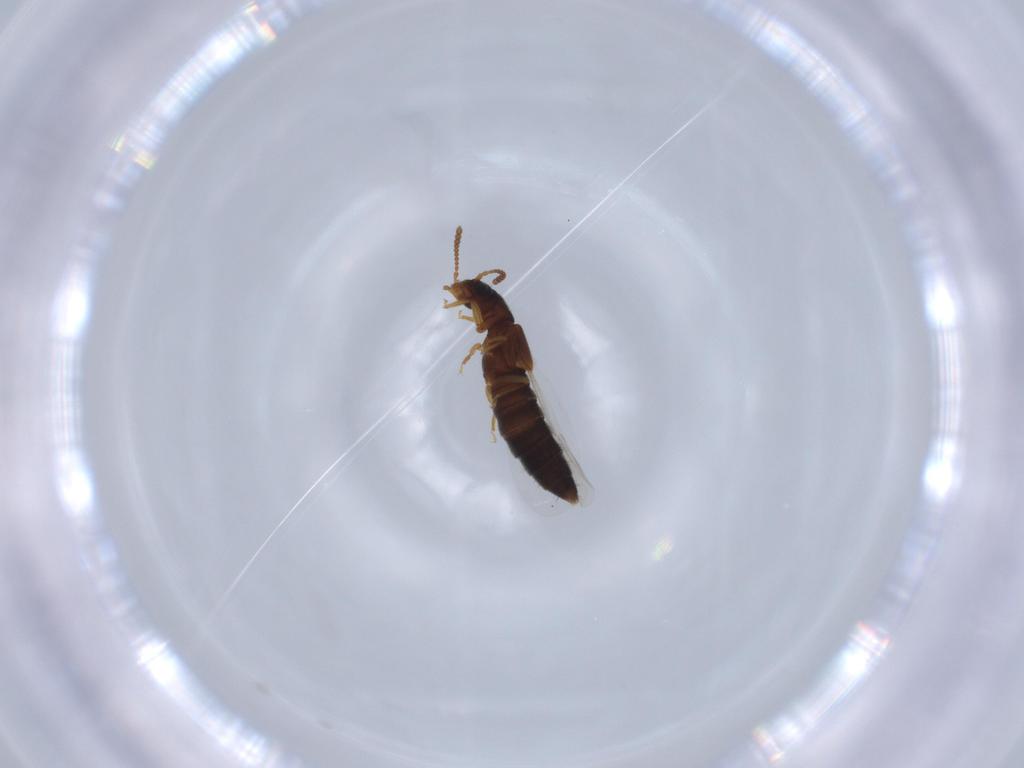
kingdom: Animalia
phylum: Arthropoda
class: Insecta
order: Coleoptera
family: Staphylinidae
